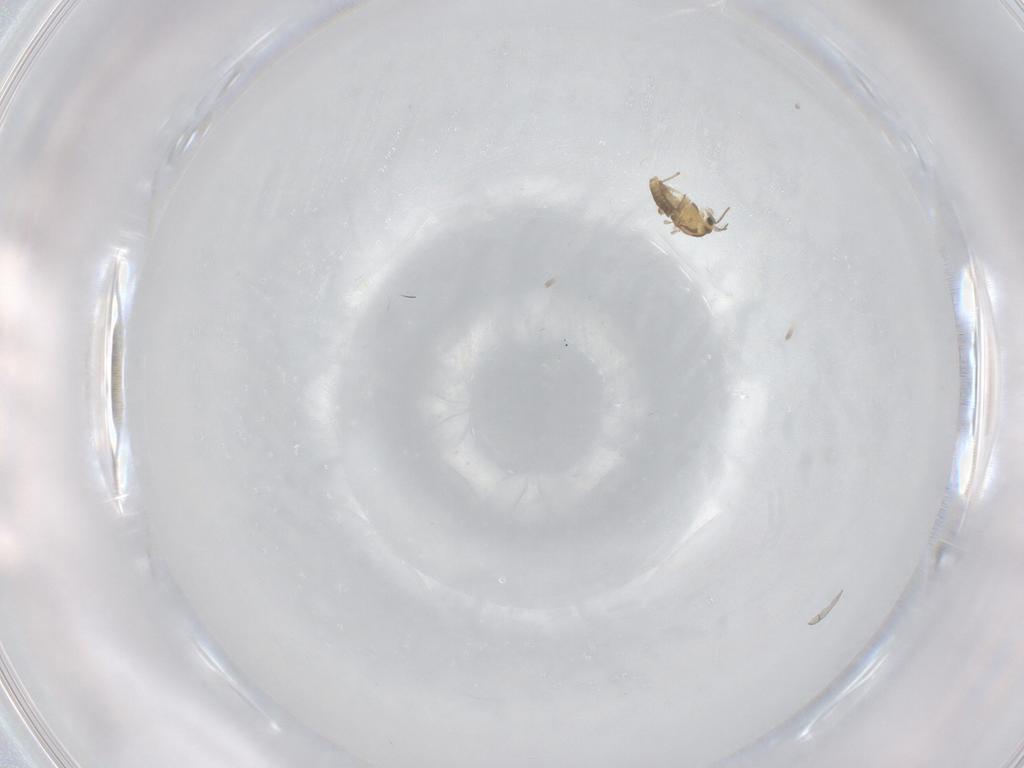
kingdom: Animalia
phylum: Arthropoda
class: Insecta
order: Diptera
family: Chironomidae
